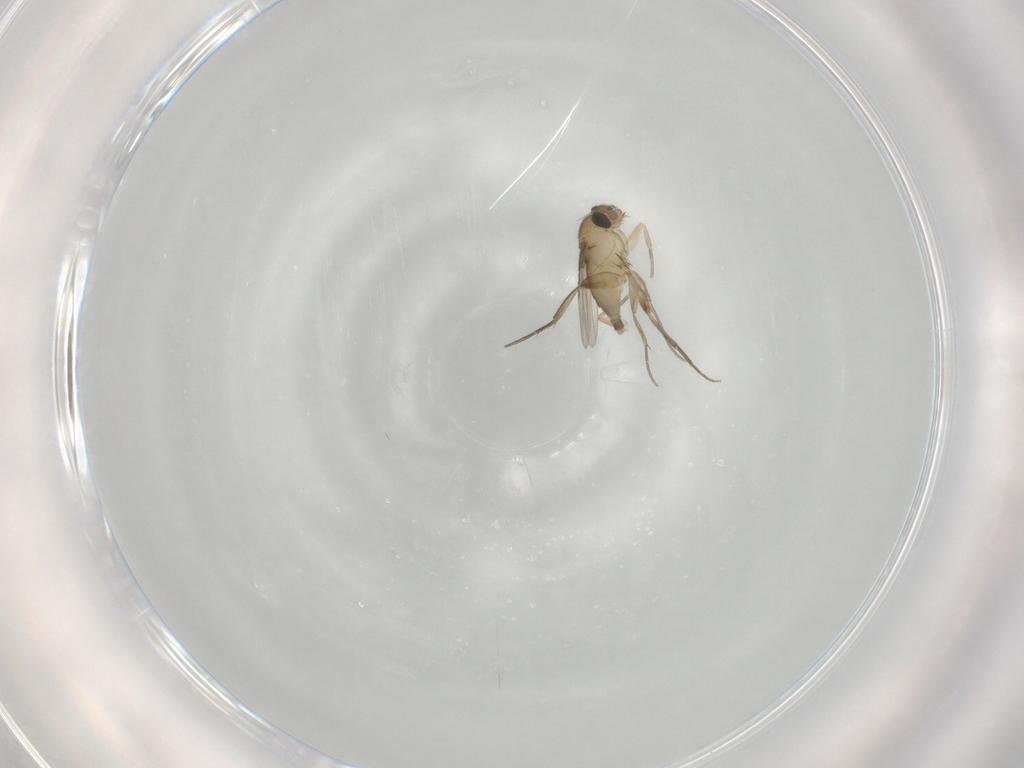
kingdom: Animalia
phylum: Arthropoda
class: Insecta
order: Diptera
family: Phoridae
